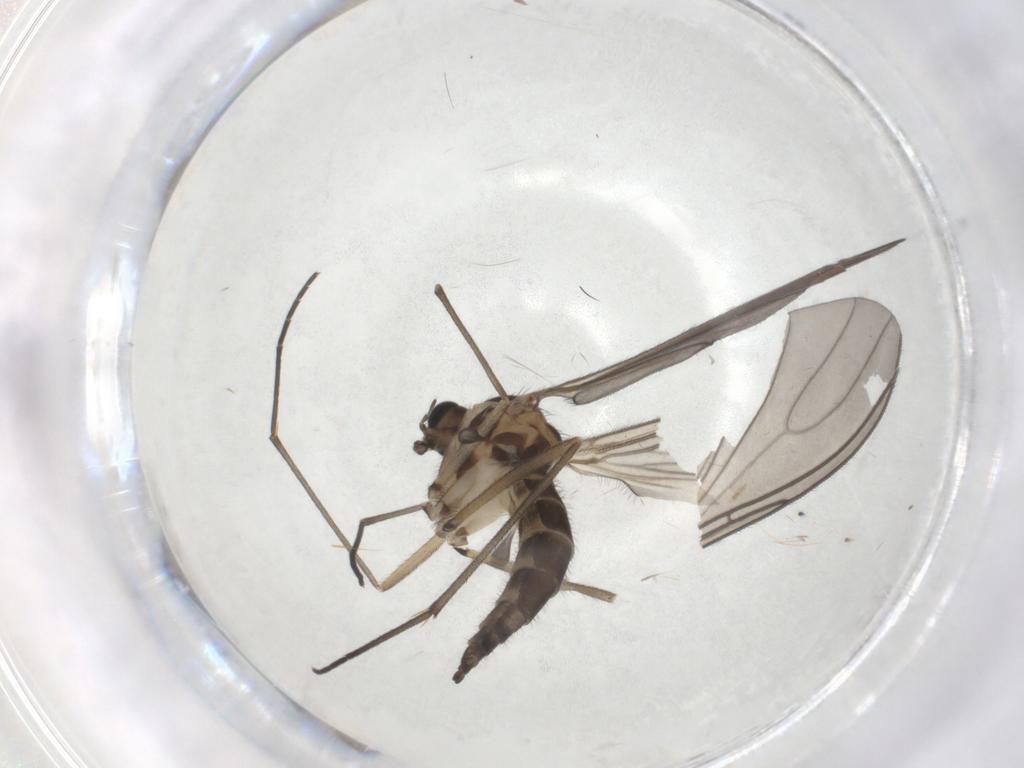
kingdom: Animalia
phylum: Arthropoda
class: Insecta
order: Diptera
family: Sciaridae
